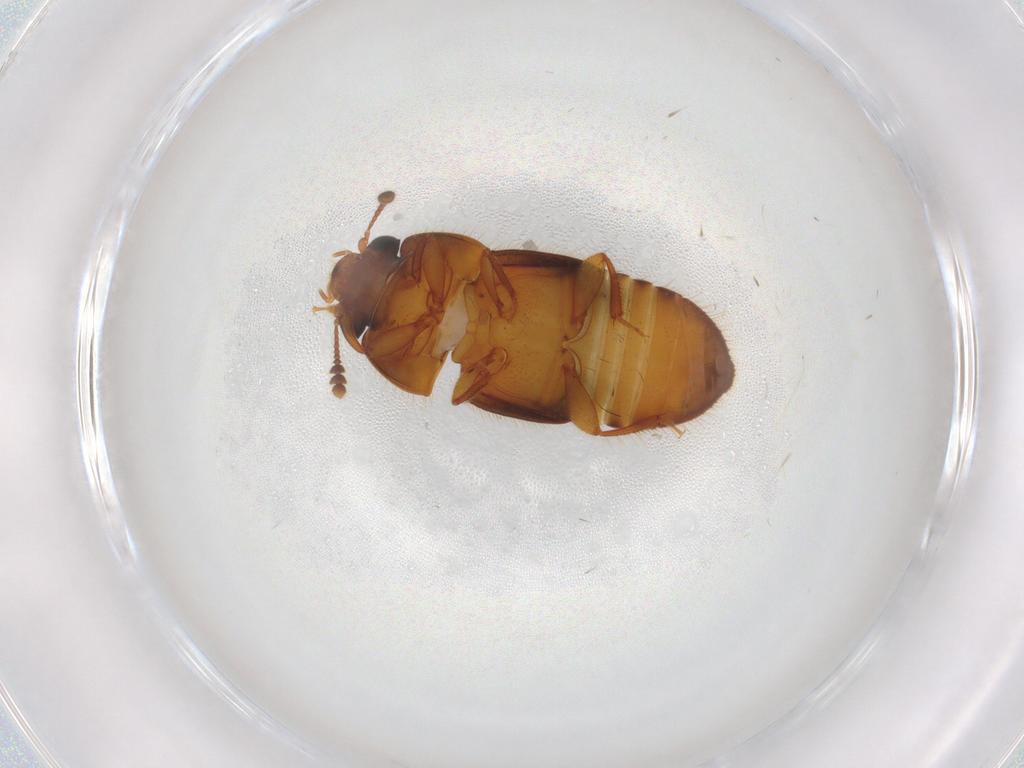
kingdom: Animalia
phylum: Arthropoda
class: Insecta
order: Coleoptera
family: Nitidulidae
